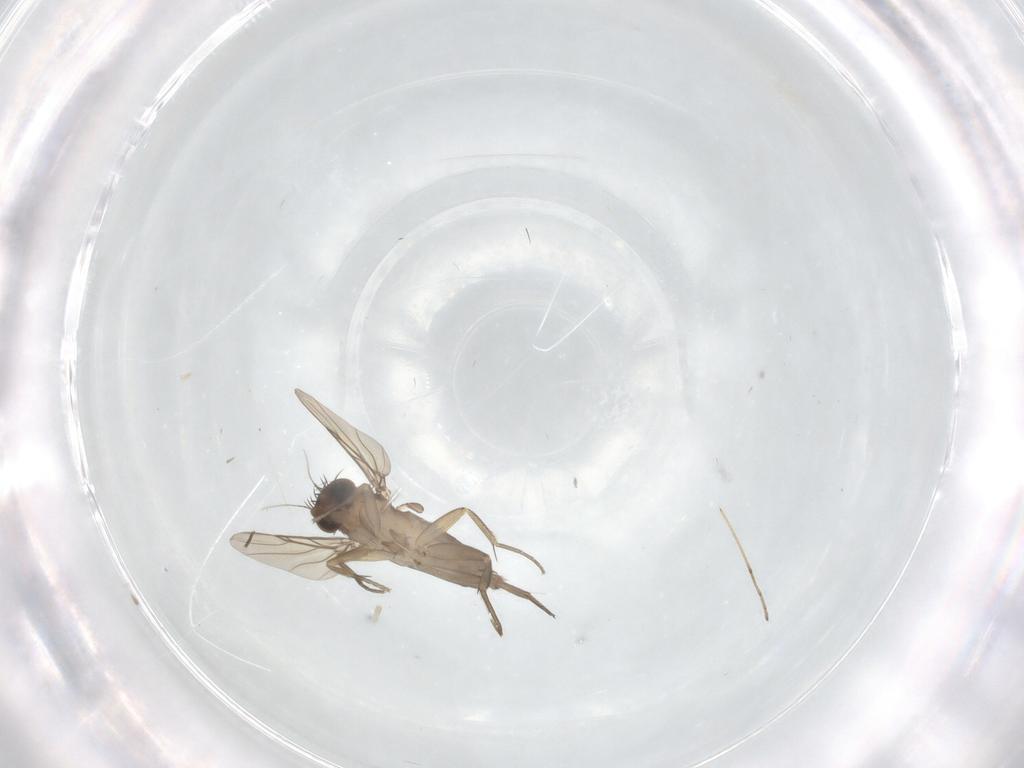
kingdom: Animalia
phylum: Arthropoda
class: Insecta
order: Diptera
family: Phoridae
